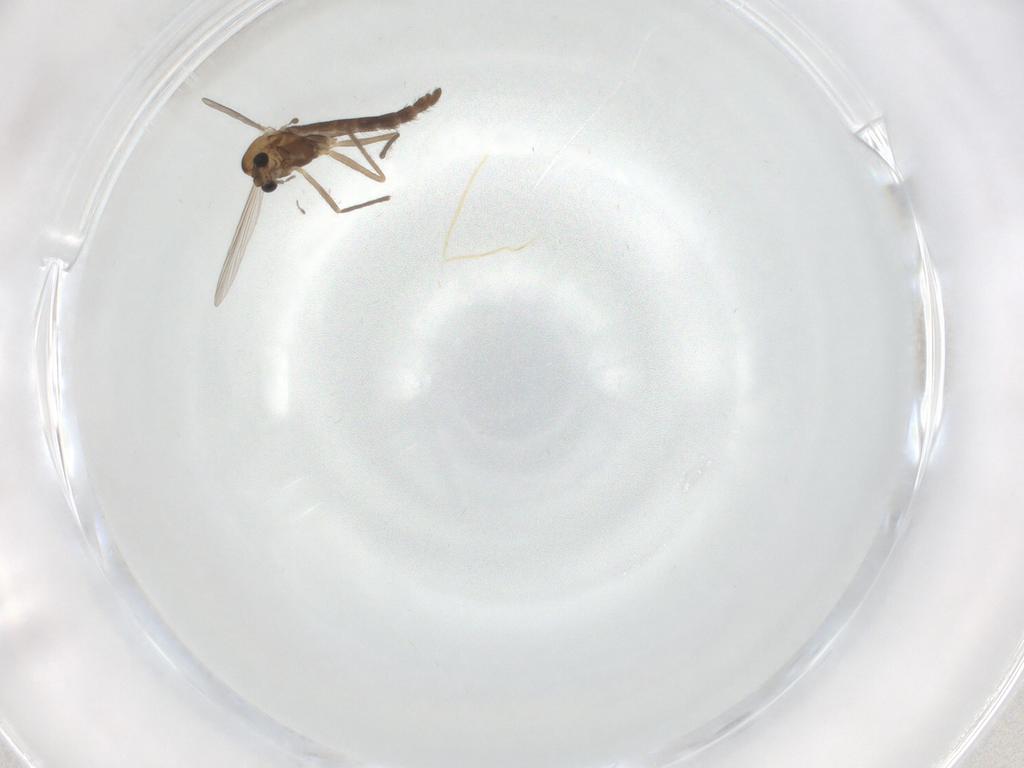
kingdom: Animalia
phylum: Arthropoda
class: Insecta
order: Diptera
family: Chironomidae
